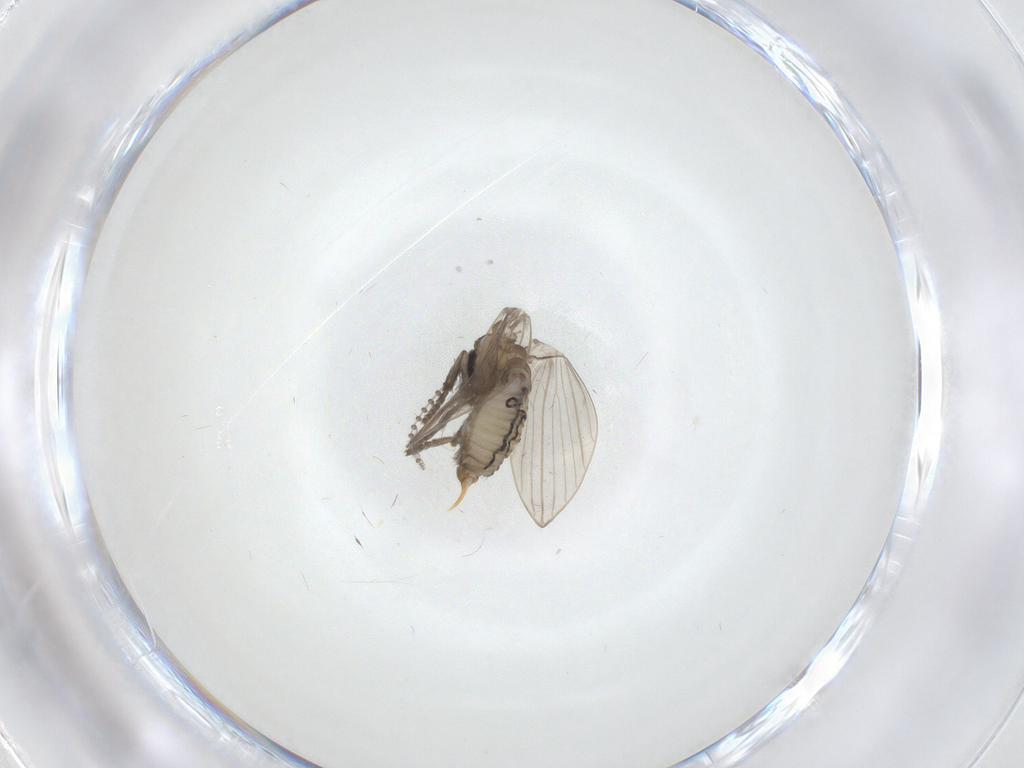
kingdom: Animalia
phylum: Arthropoda
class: Insecta
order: Diptera
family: Psychodidae
